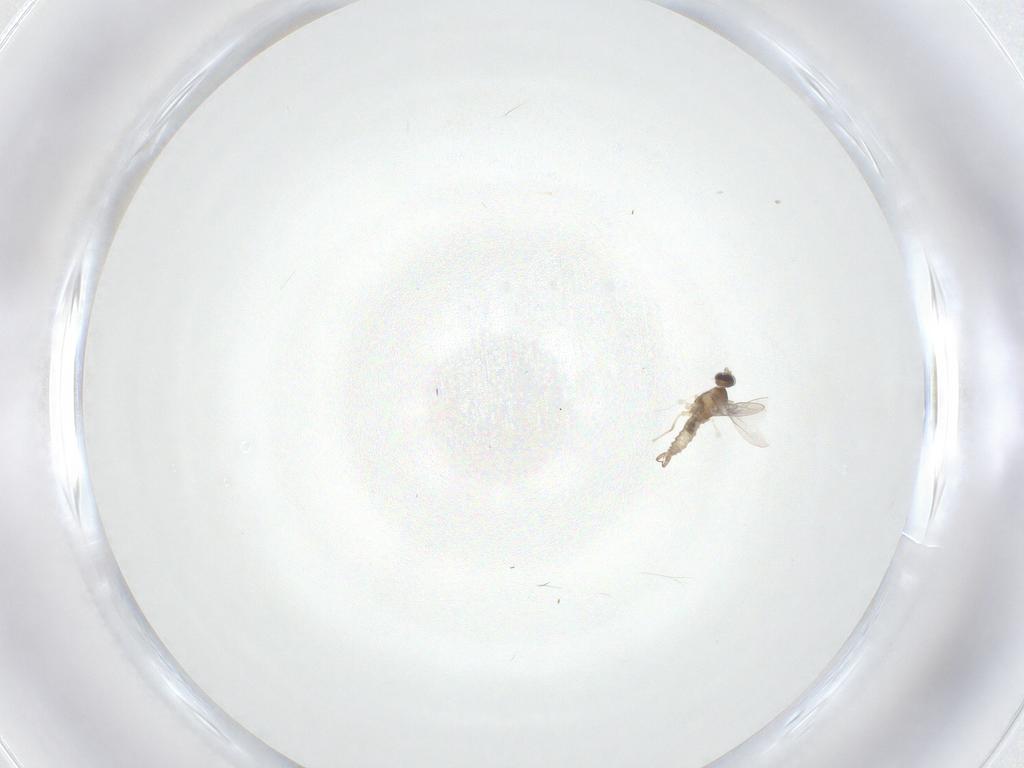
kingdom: Animalia
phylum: Arthropoda
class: Insecta
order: Diptera
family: Cecidomyiidae
